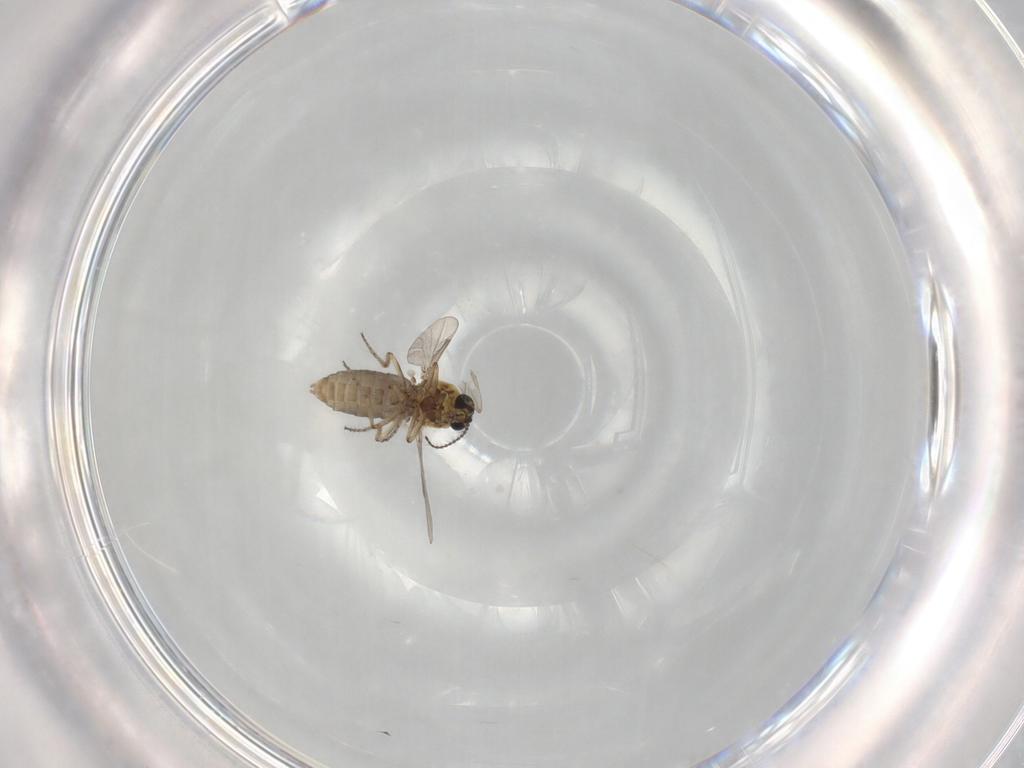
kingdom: Animalia
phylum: Arthropoda
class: Insecta
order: Diptera
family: Ceratopogonidae
